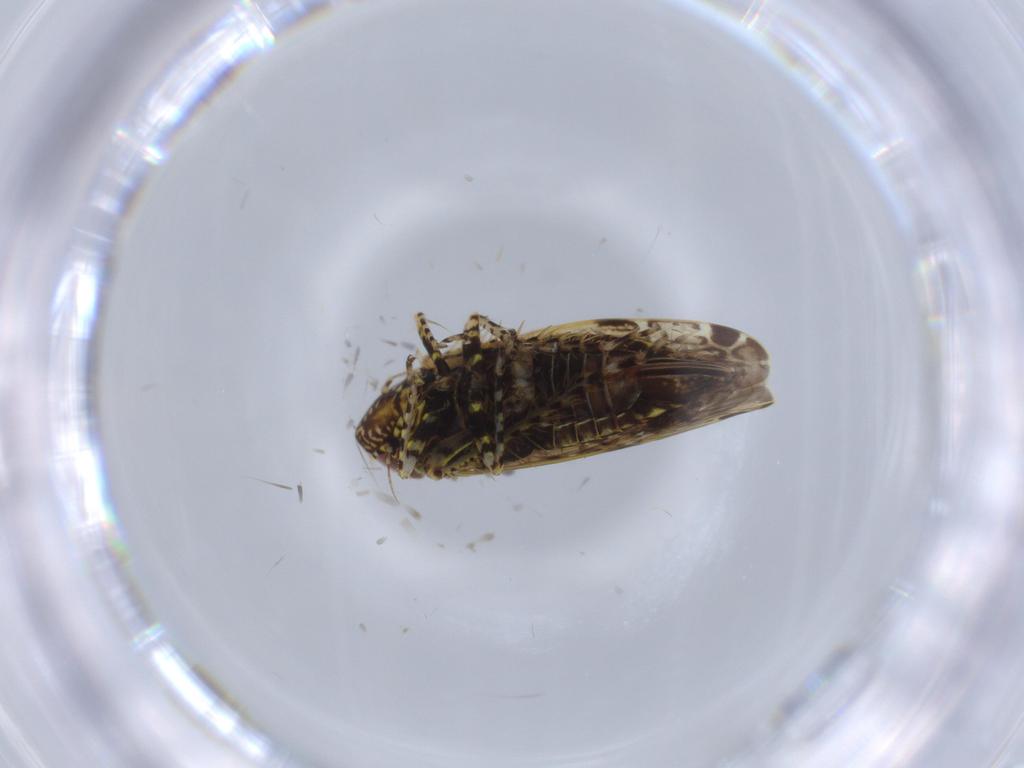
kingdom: Animalia
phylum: Arthropoda
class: Insecta
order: Hemiptera
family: Cicadellidae
